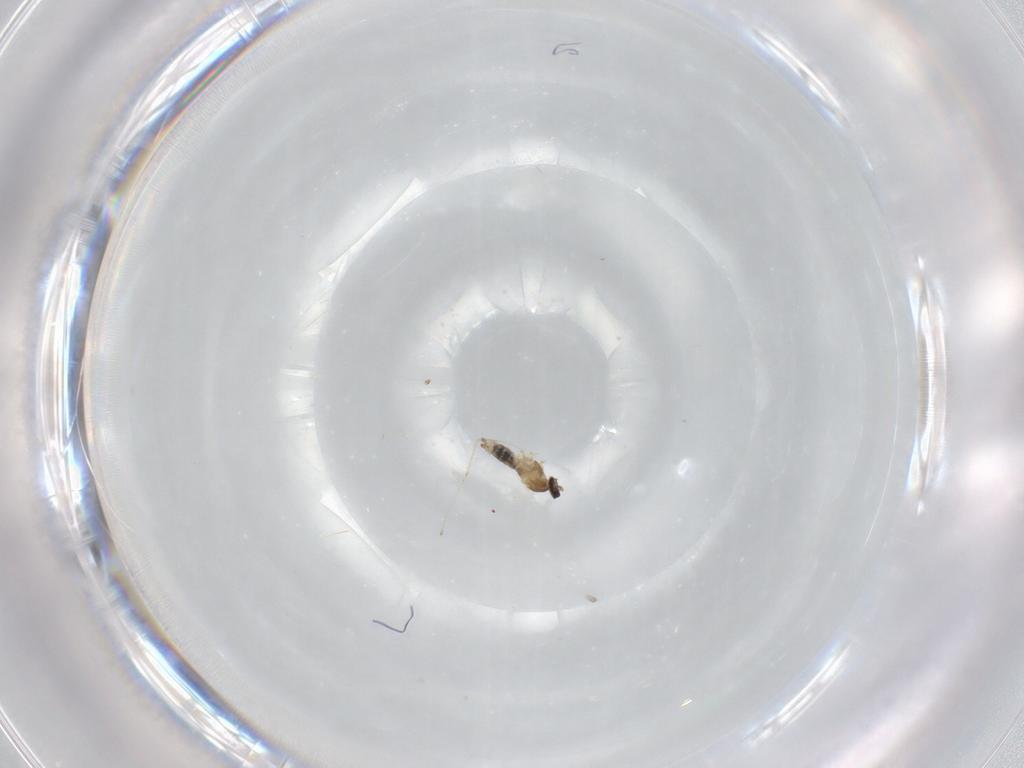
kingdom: Animalia
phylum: Arthropoda
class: Insecta
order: Diptera
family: Cecidomyiidae
